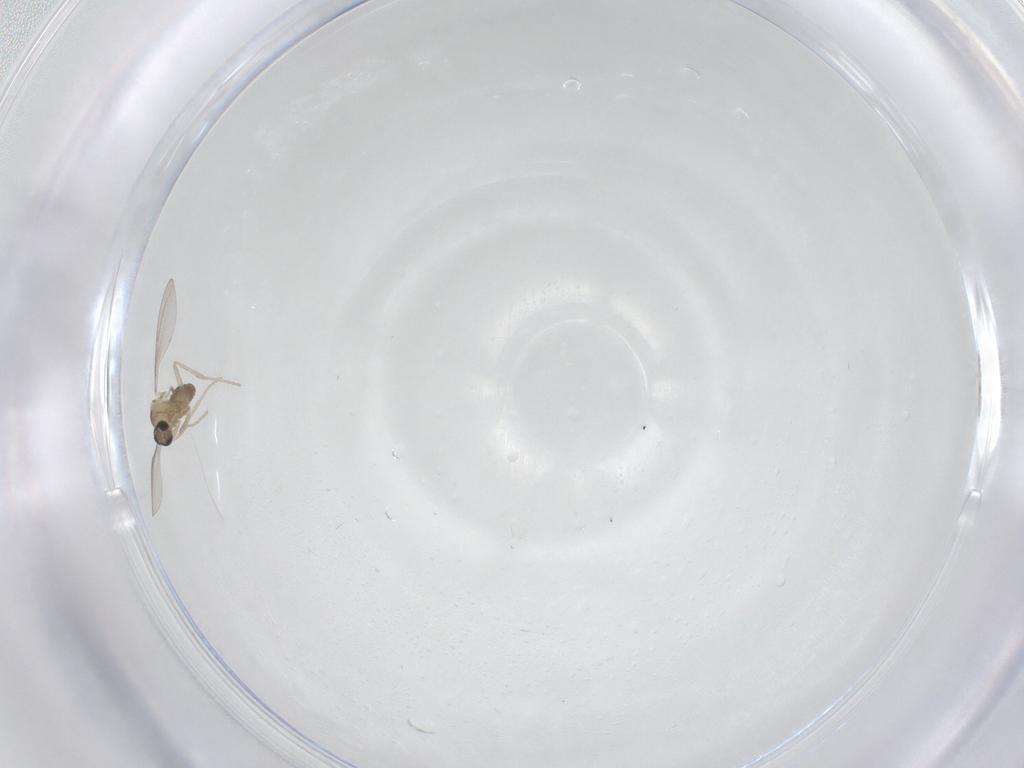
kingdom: Animalia
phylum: Arthropoda
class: Insecta
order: Diptera
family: Cecidomyiidae
